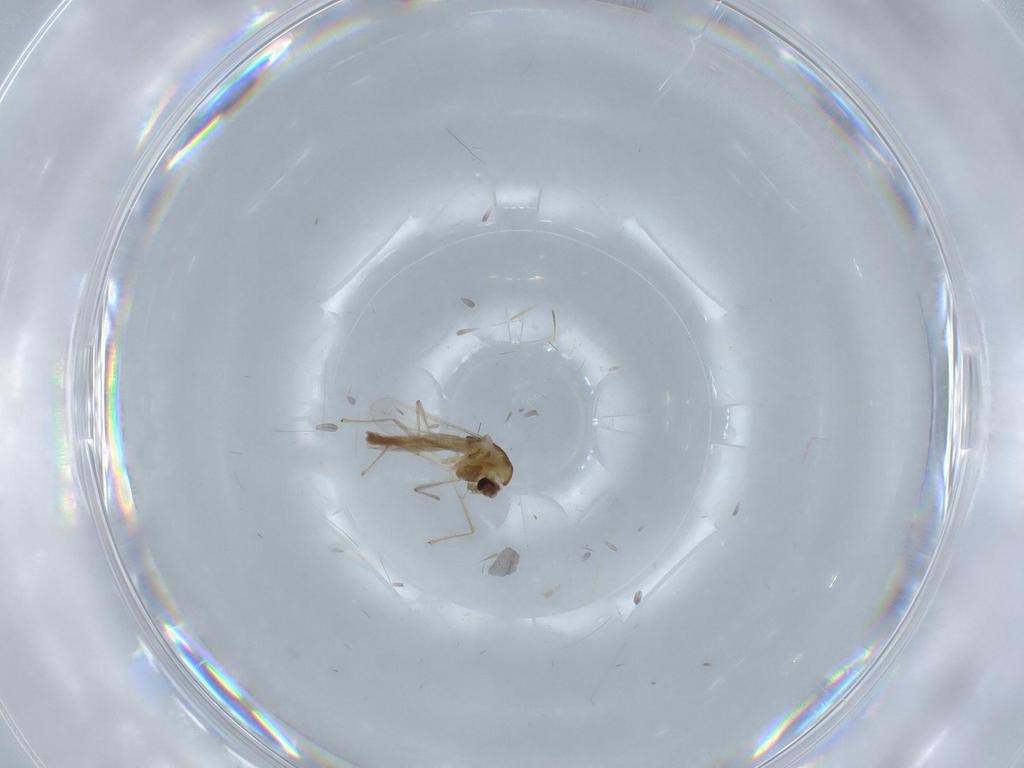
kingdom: Animalia
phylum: Arthropoda
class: Insecta
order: Diptera
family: Chironomidae
